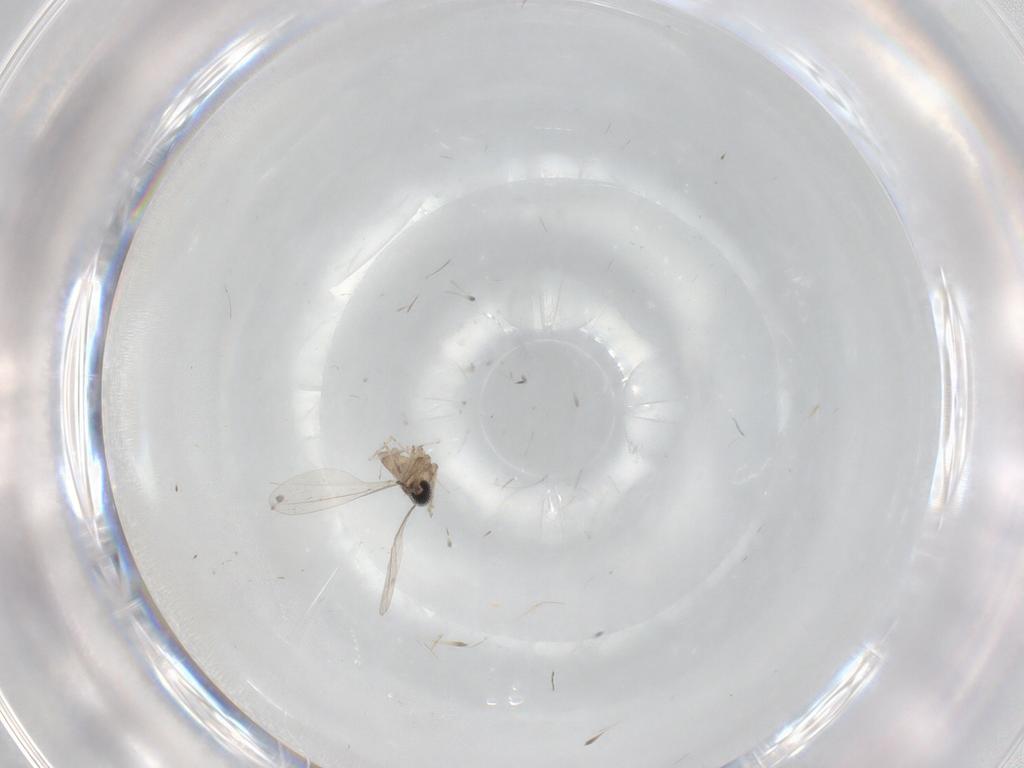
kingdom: Animalia
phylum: Arthropoda
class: Insecta
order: Diptera
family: Cecidomyiidae
